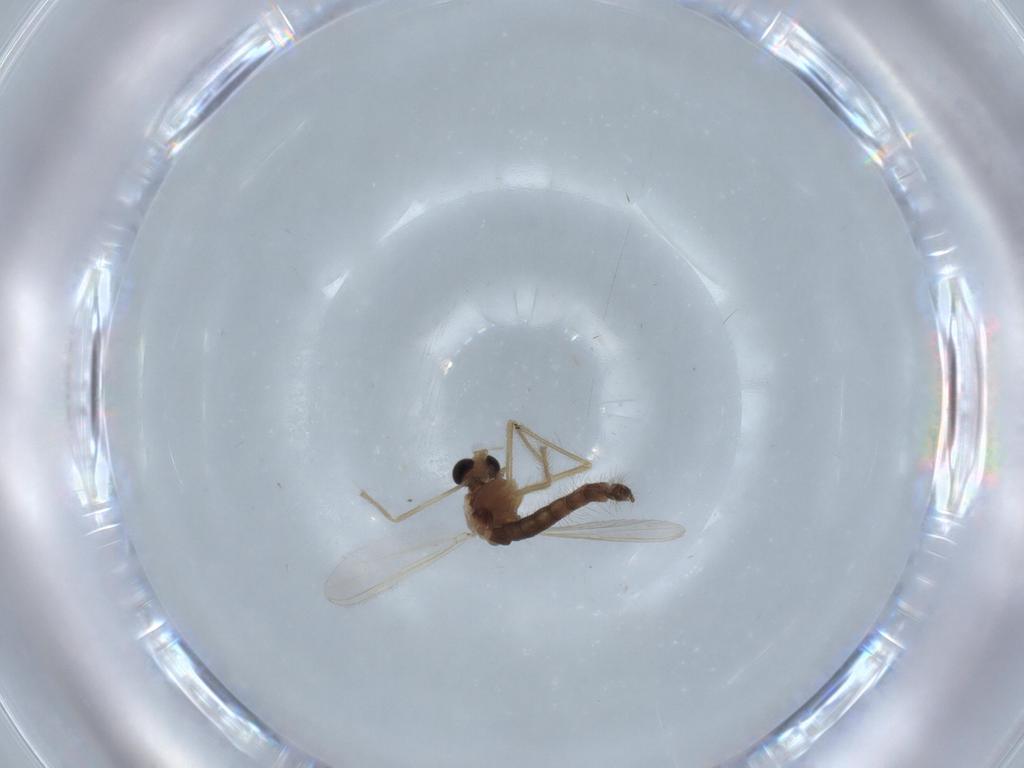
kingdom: Animalia
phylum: Arthropoda
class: Insecta
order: Diptera
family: Chironomidae
